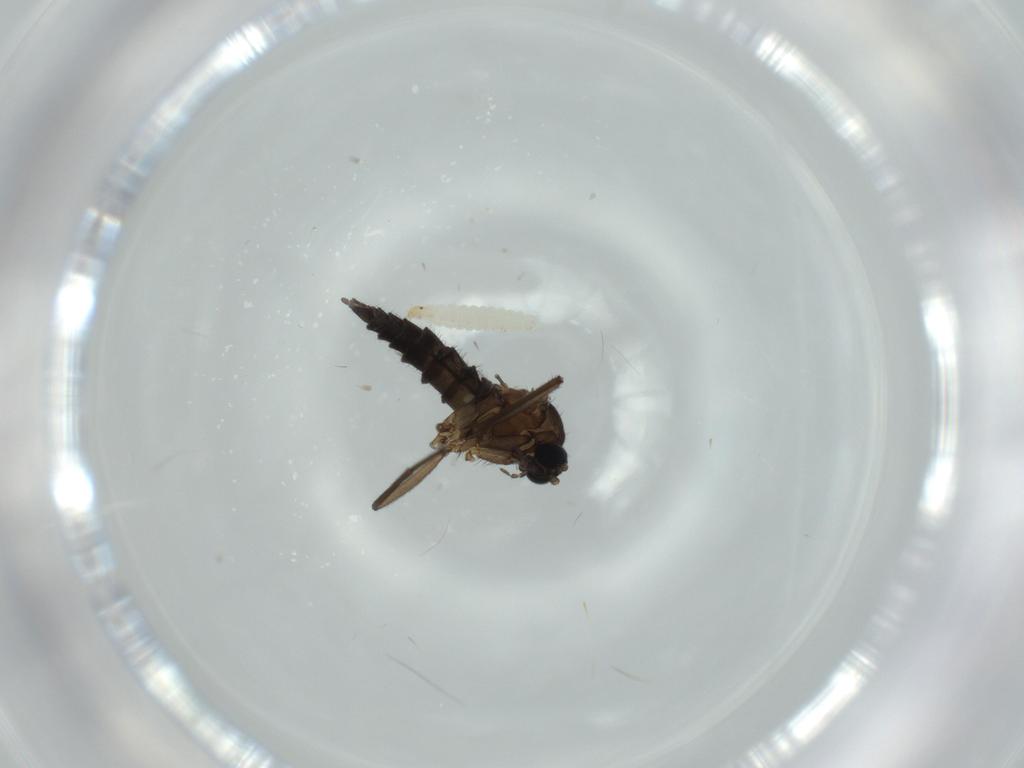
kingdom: Animalia
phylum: Arthropoda
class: Insecta
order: Diptera
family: Sciaridae
